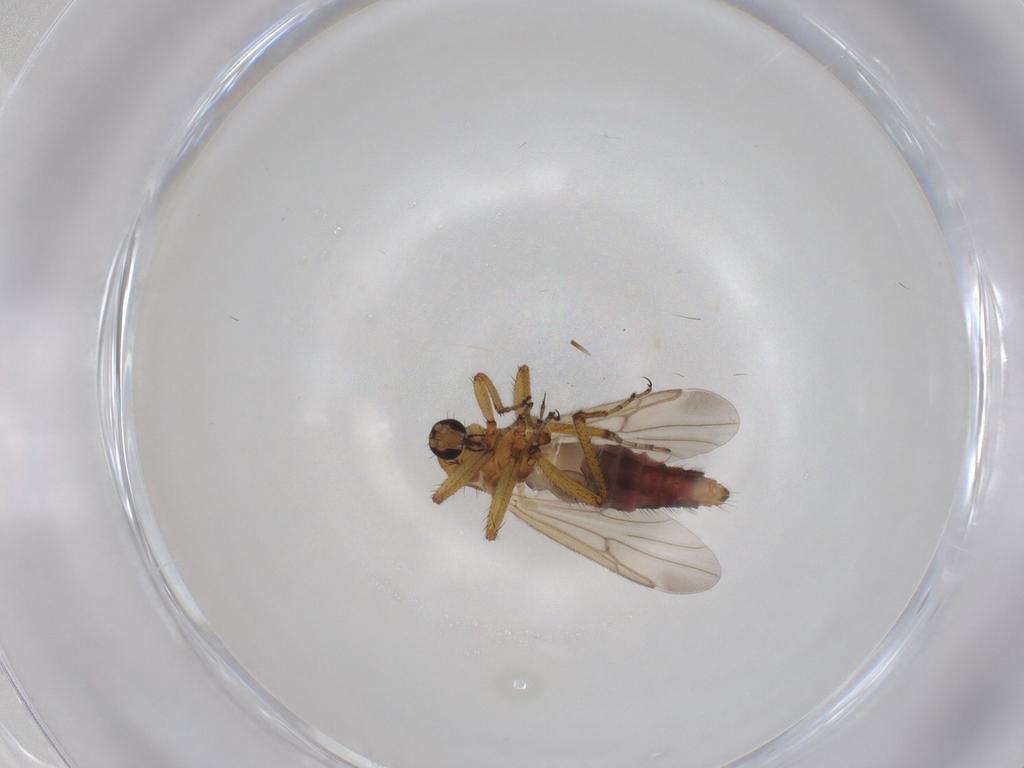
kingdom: Animalia
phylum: Arthropoda
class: Insecta
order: Diptera
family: Ceratopogonidae
